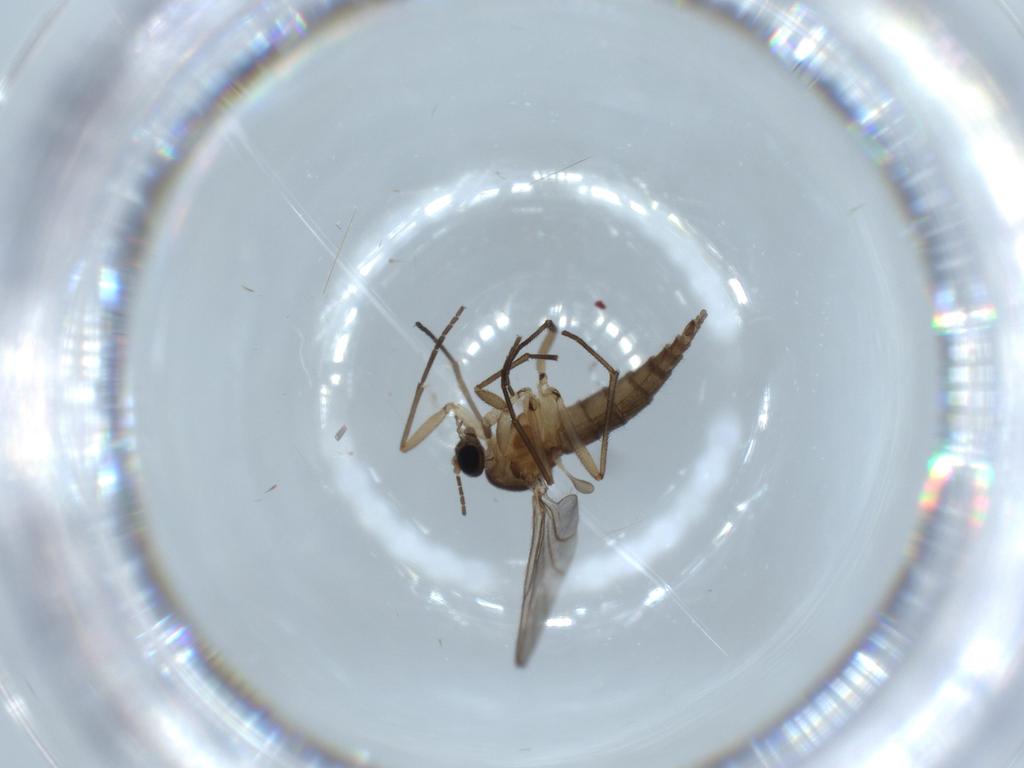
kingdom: Animalia
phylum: Arthropoda
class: Insecta
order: Diptera
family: Sciaridae
